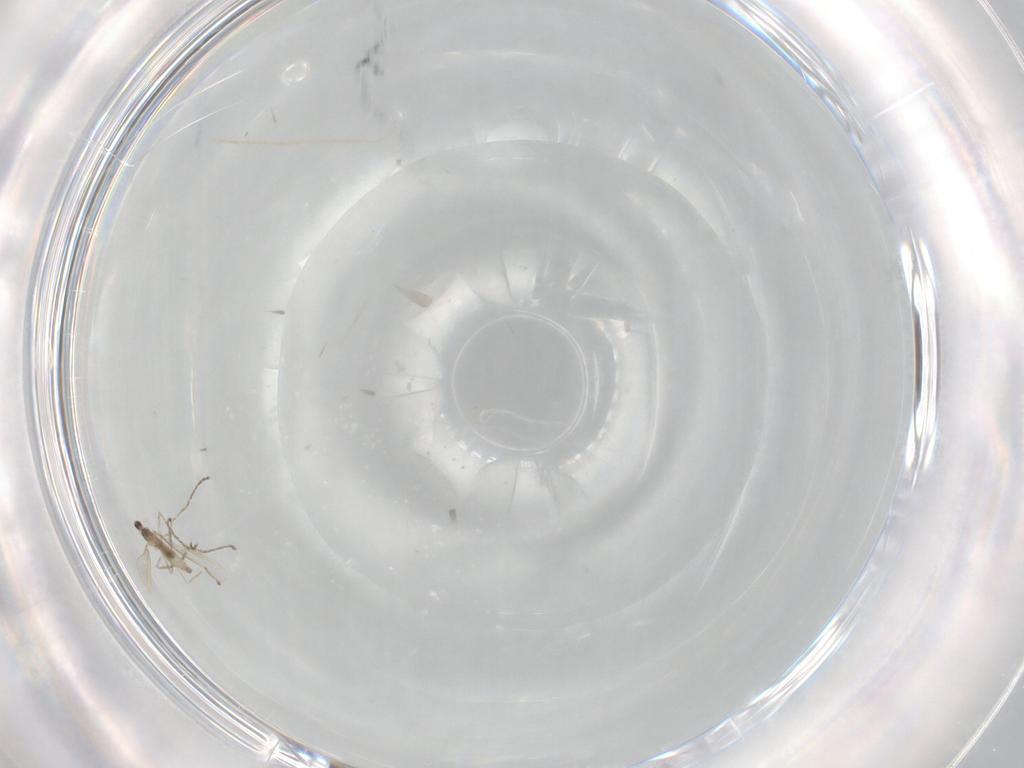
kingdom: Animalia
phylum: Arthropoda
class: Insecta
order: Diptera
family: Cecidomyiidae
